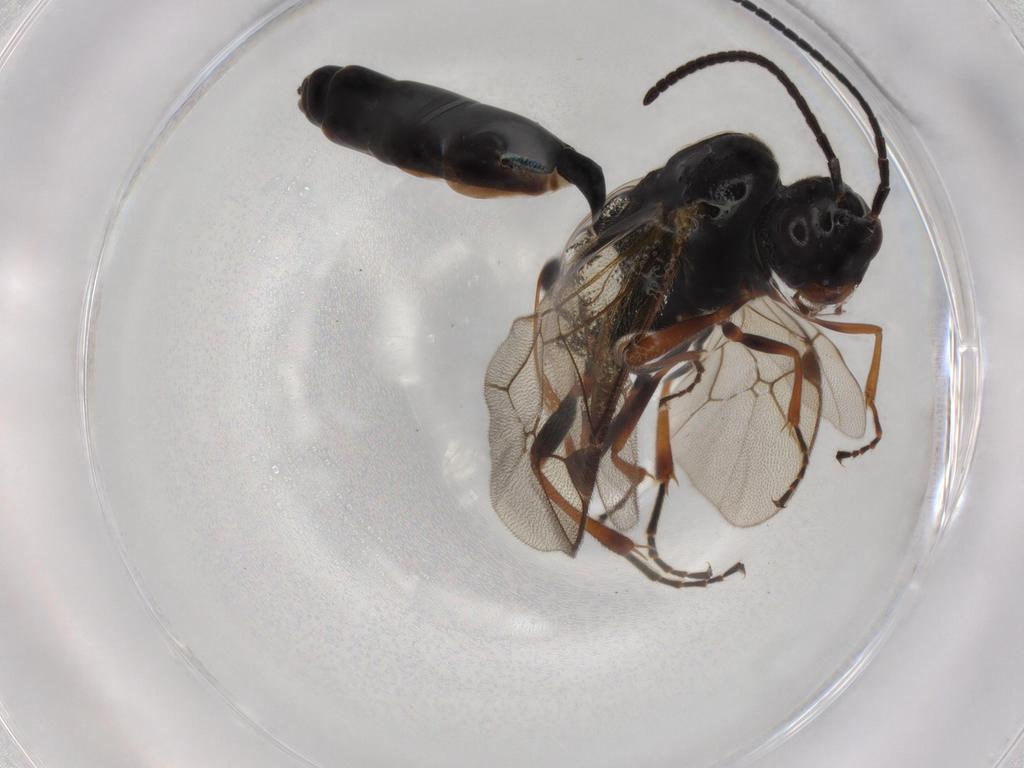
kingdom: Animalia
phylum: Arthropoda
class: Insecta
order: Hymenoptera
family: Ichneumonidae
